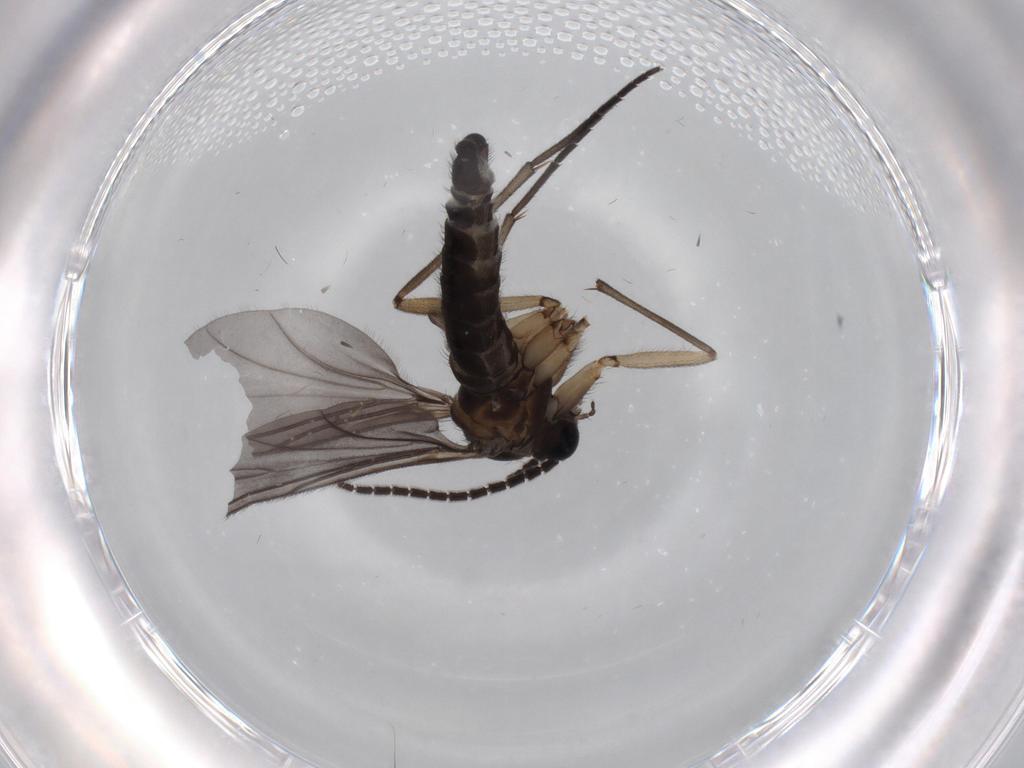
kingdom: Animalia
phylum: Arthropoda
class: Insecta
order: Diptera
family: Sciaridae
